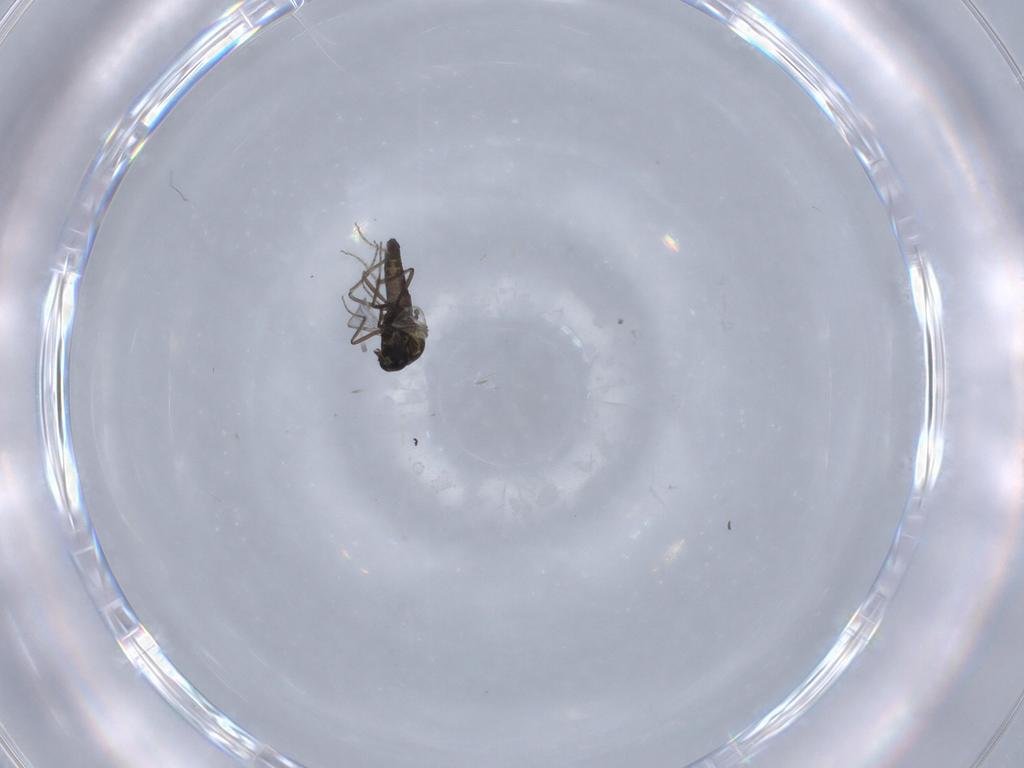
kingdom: Animalia
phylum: Arthropoda
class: Insecta
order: Diptera
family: Ceratopogonidae
